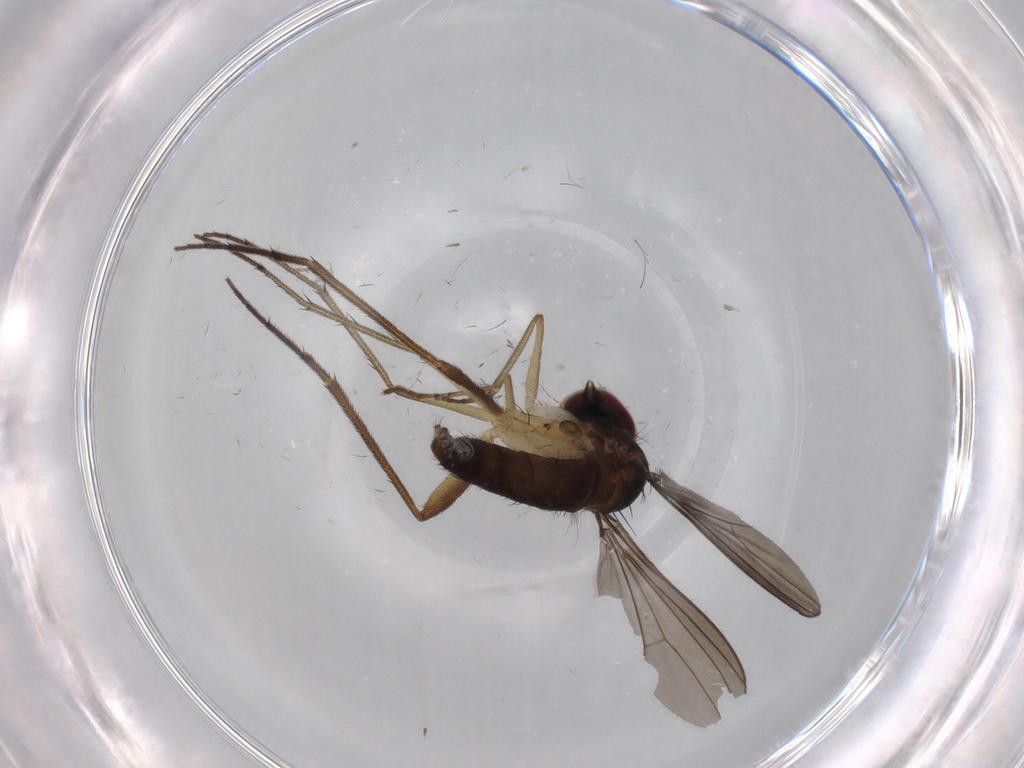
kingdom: Animalia
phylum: Arthropoda
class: Insecta
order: Diptera
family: Dolichopodidae
